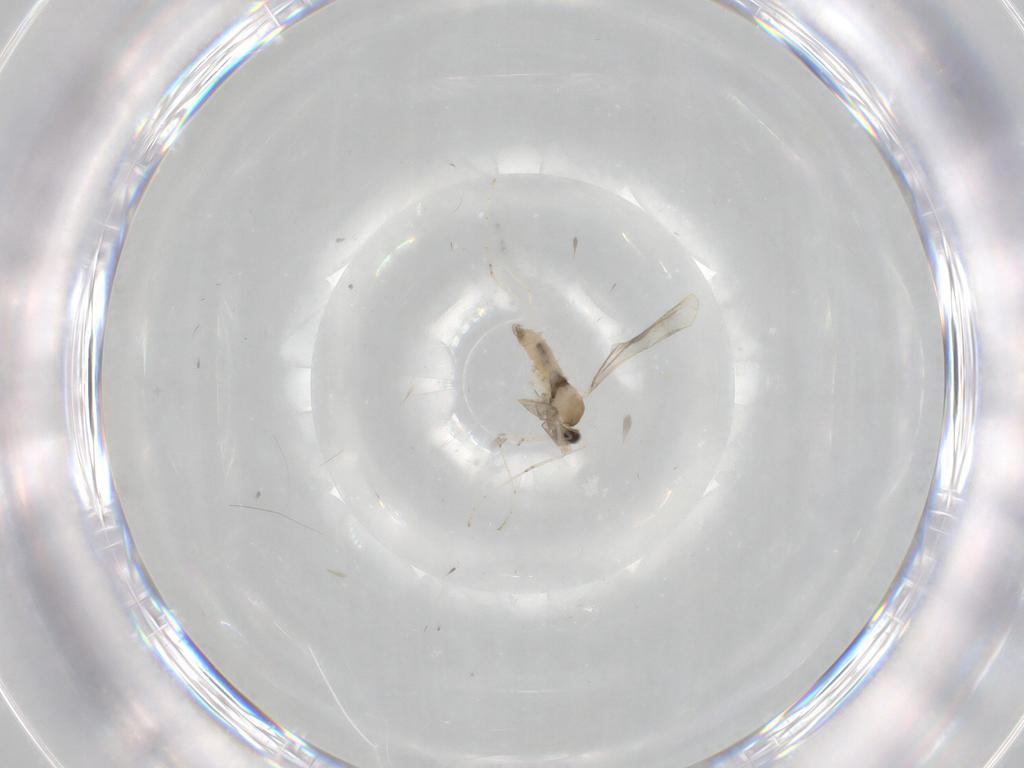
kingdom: Animalia
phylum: Arthropoda
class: Insecta
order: Diptera
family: Cecidomyiidae
